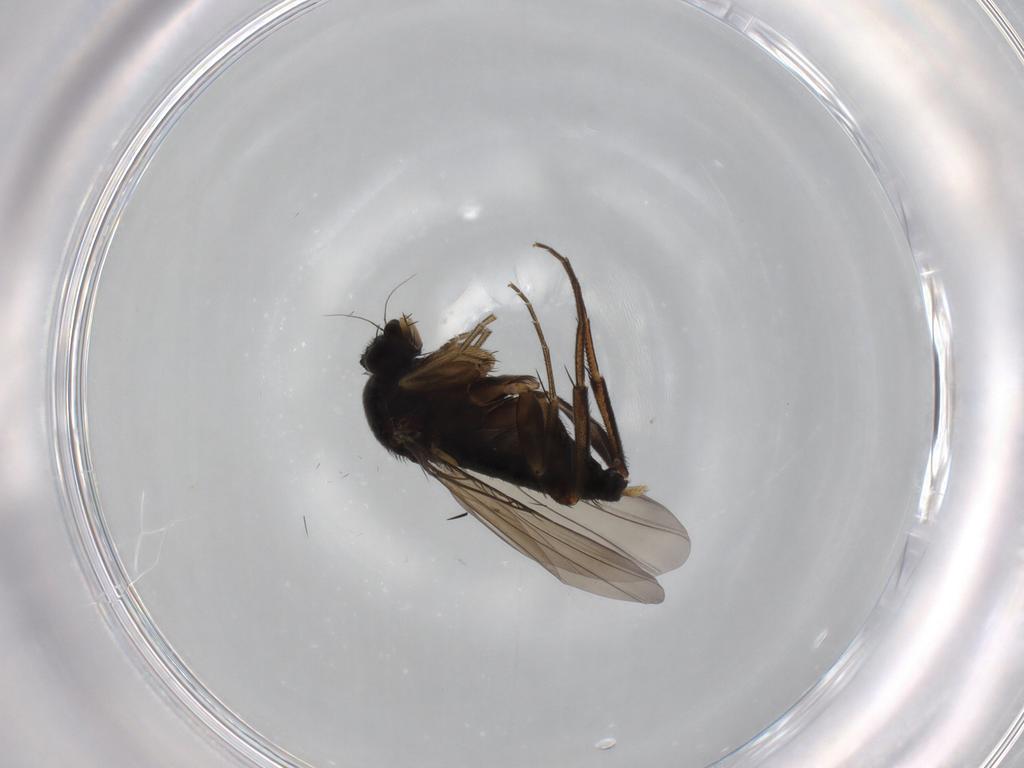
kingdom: Animalia
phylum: Arthropoda
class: Insecta
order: Diptera
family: Phoridae
